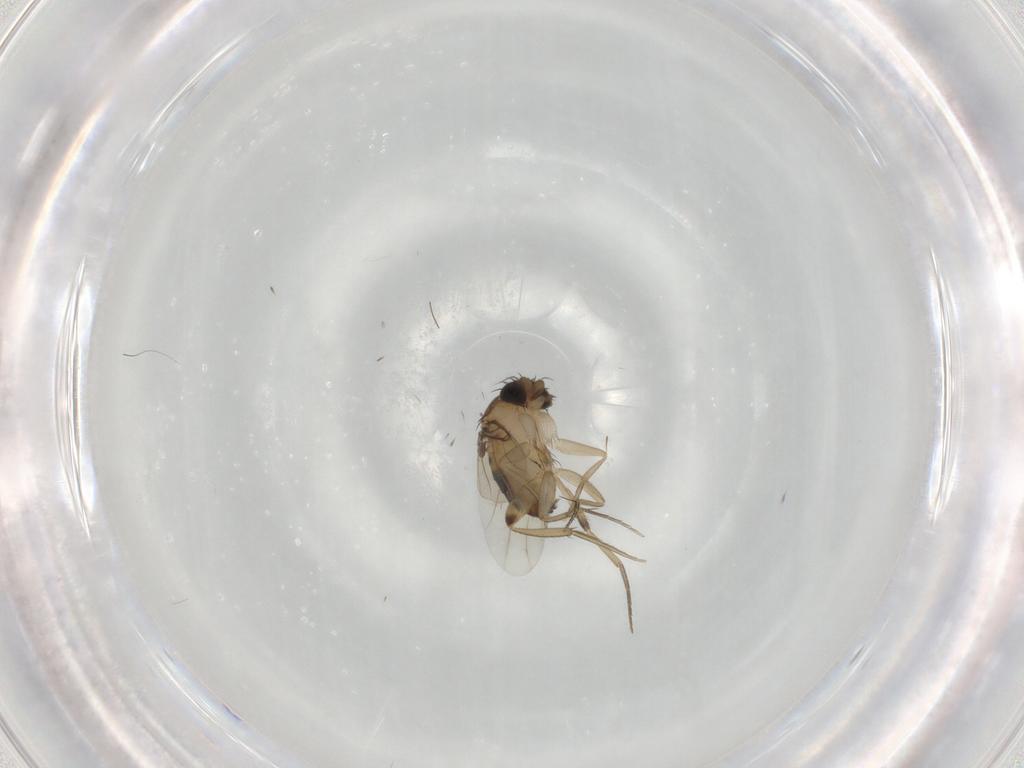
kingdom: Animalia
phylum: Arthropoda
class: Insecta
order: Diptera
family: Phoridae
